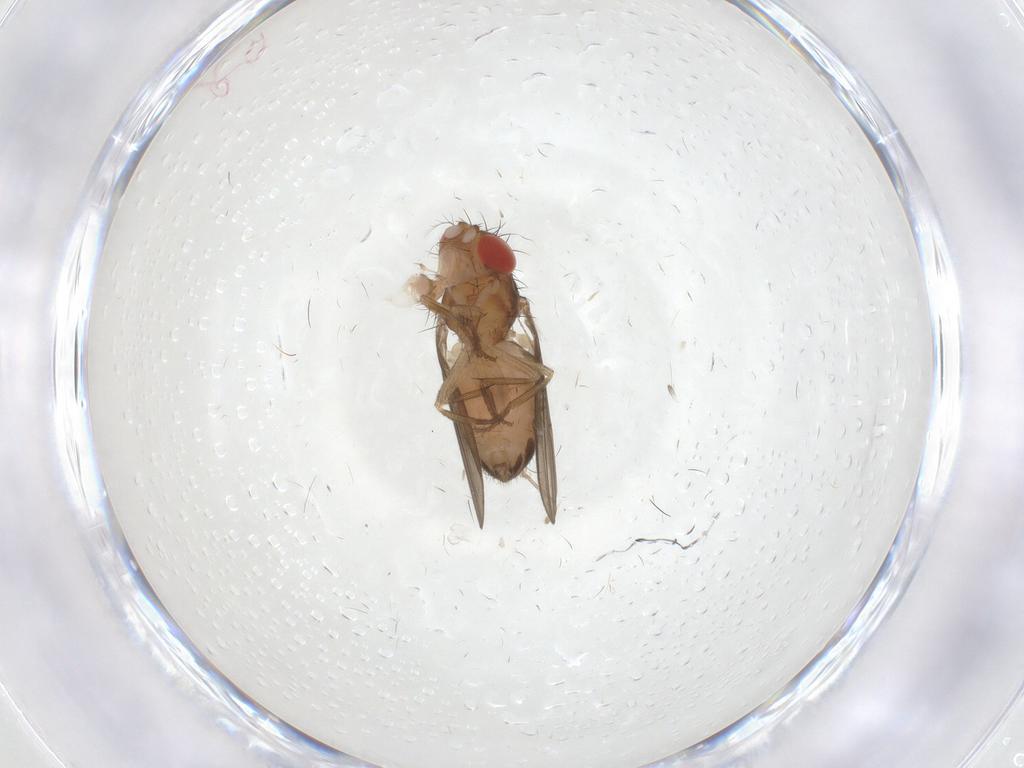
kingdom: Animalia
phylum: Arthropoda
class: Insecta
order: Diptera
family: Drosophilidae
